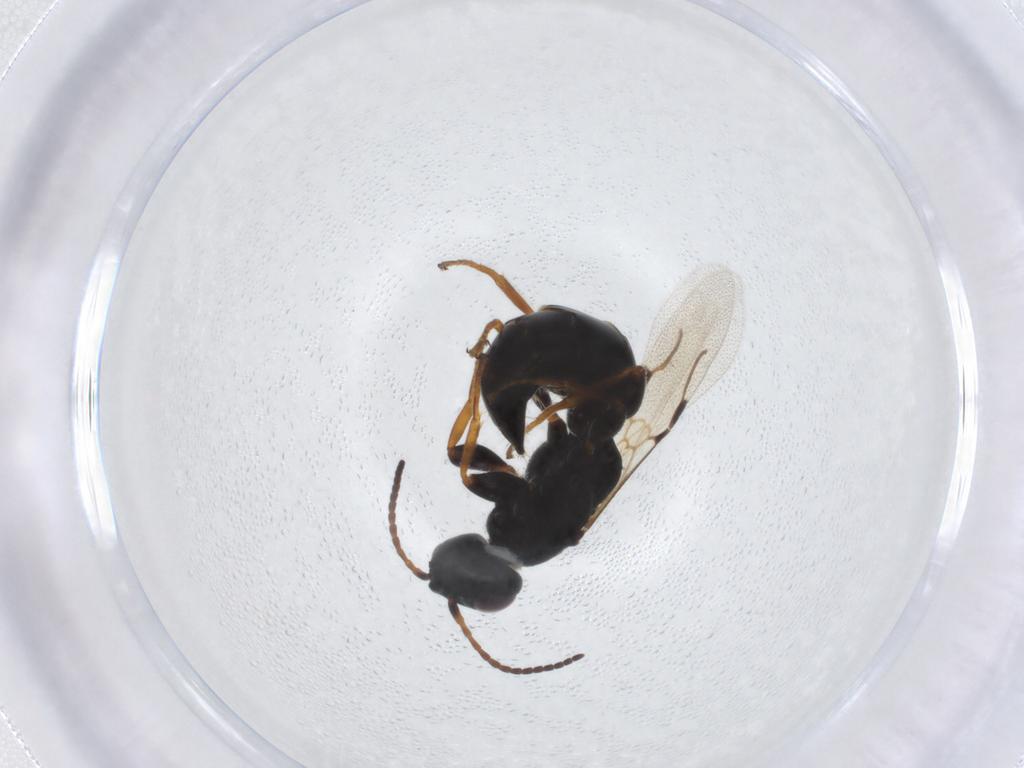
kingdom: Animalia
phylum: Arthropoda
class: Insecta
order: Hymenoptera
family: Bethylidae
